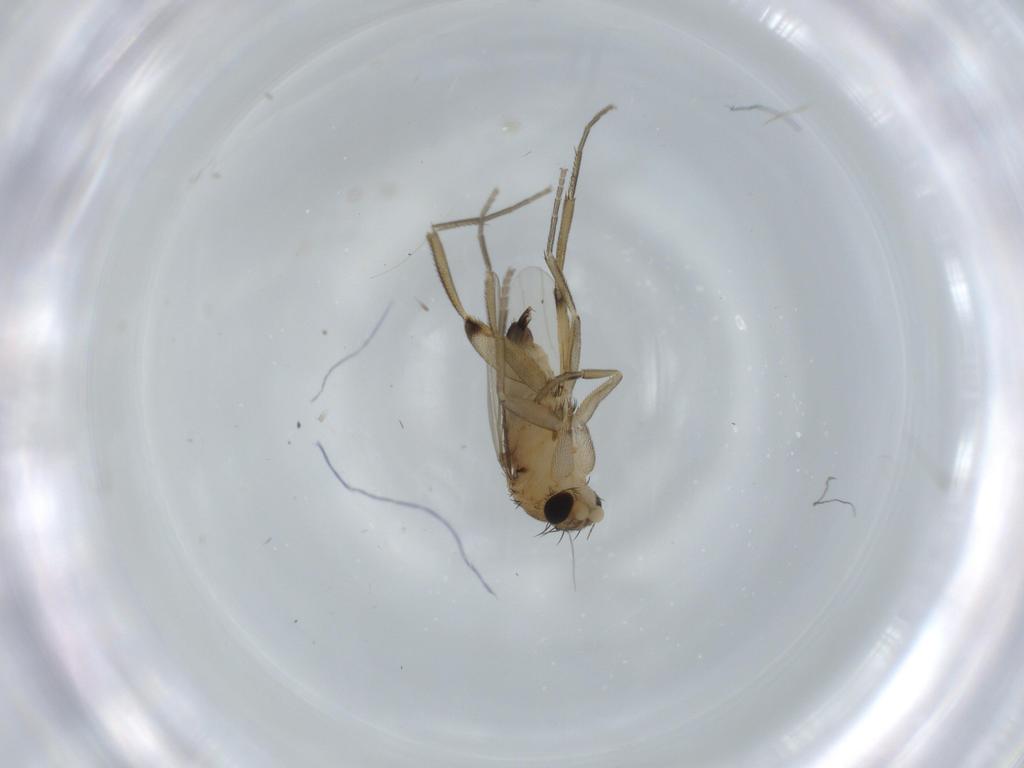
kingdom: Animalia
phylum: Arthropoda
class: Insecta
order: Diptera
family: Phoridae
